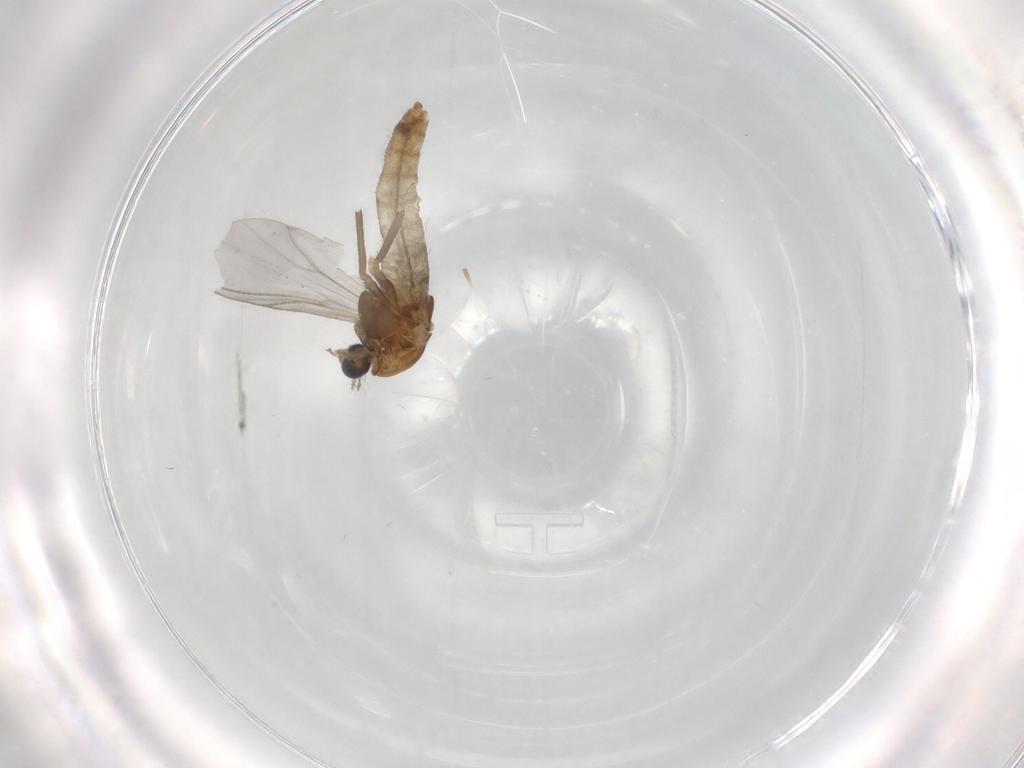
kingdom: Animalia
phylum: Arthropoda
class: Insecta
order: Diptera
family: Chironomidae
